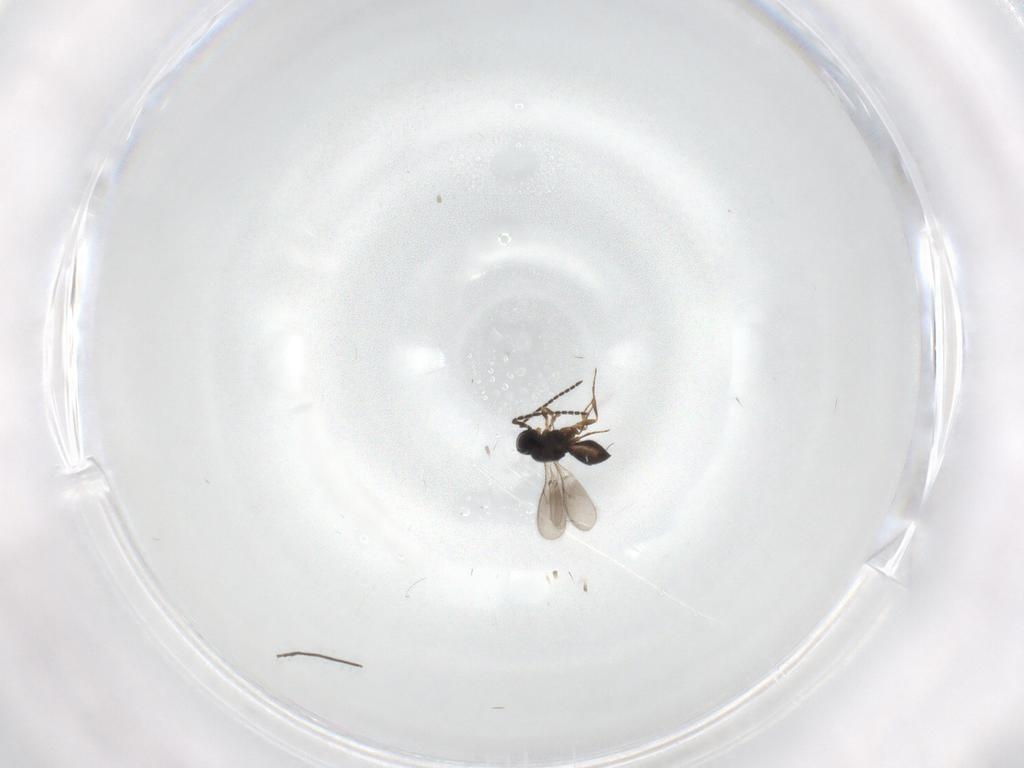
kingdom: Animalia
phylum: Arthropoda
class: Insecta
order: Hymenoptera
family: Scelionidae
